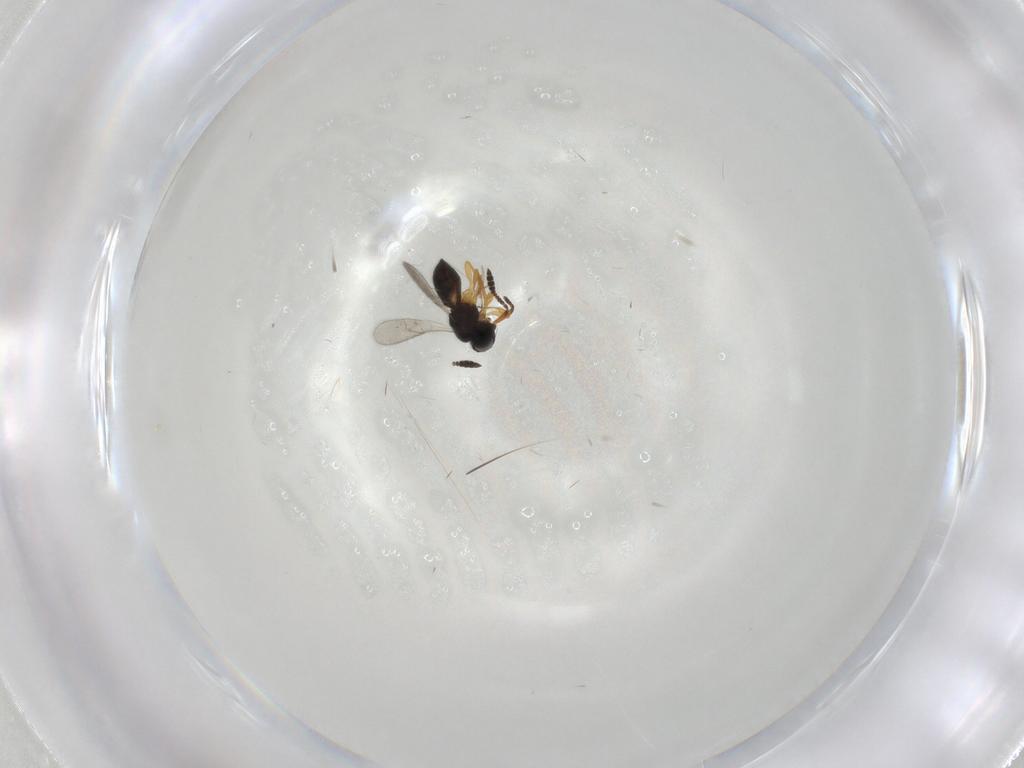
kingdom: Animalia
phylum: Arthropoda
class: Insecta
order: Hymenoptera
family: Scelionidae
